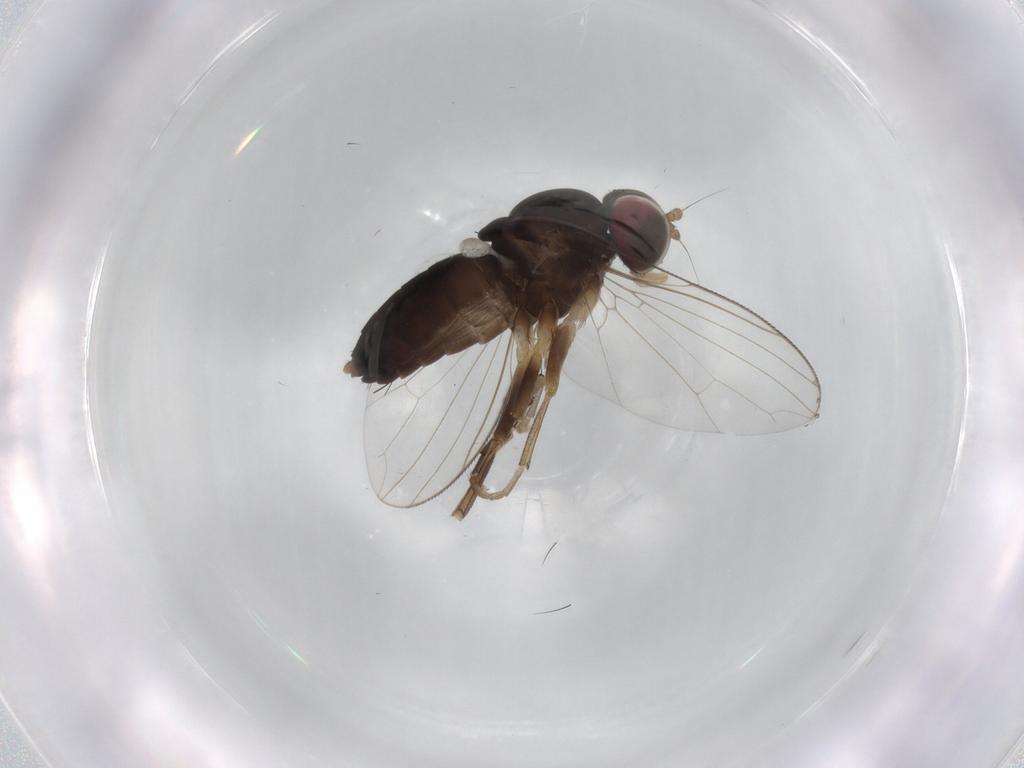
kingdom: Animalia
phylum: Arthropoda
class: Insecta
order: Diptera
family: Platypezidae
